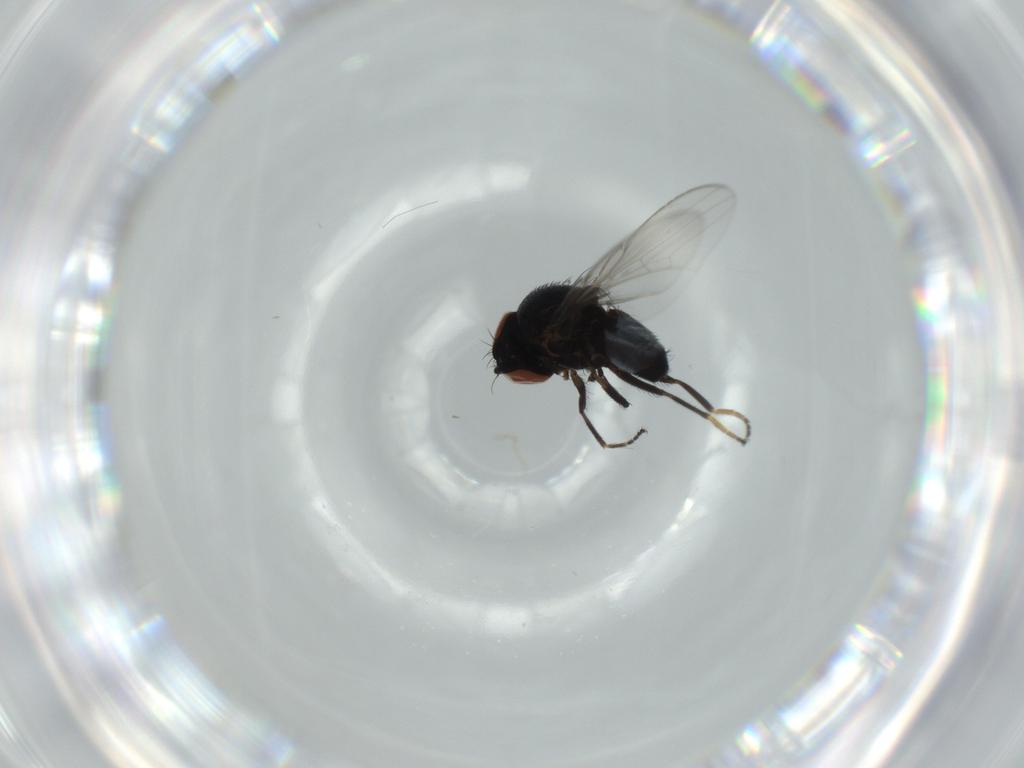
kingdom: Animalia
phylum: Arthropoda
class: Insecta
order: Diptera
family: Milichiidae
